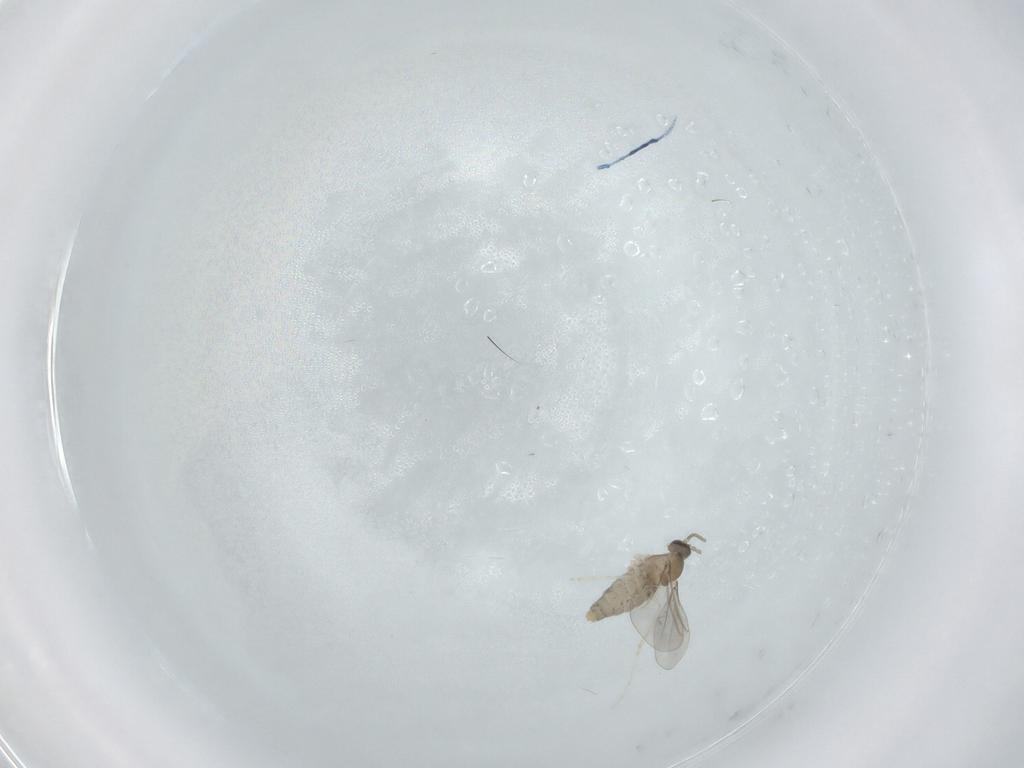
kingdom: Animalia
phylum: Arthropoda
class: Insecta
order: Diptera
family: Cecidomyiidae
